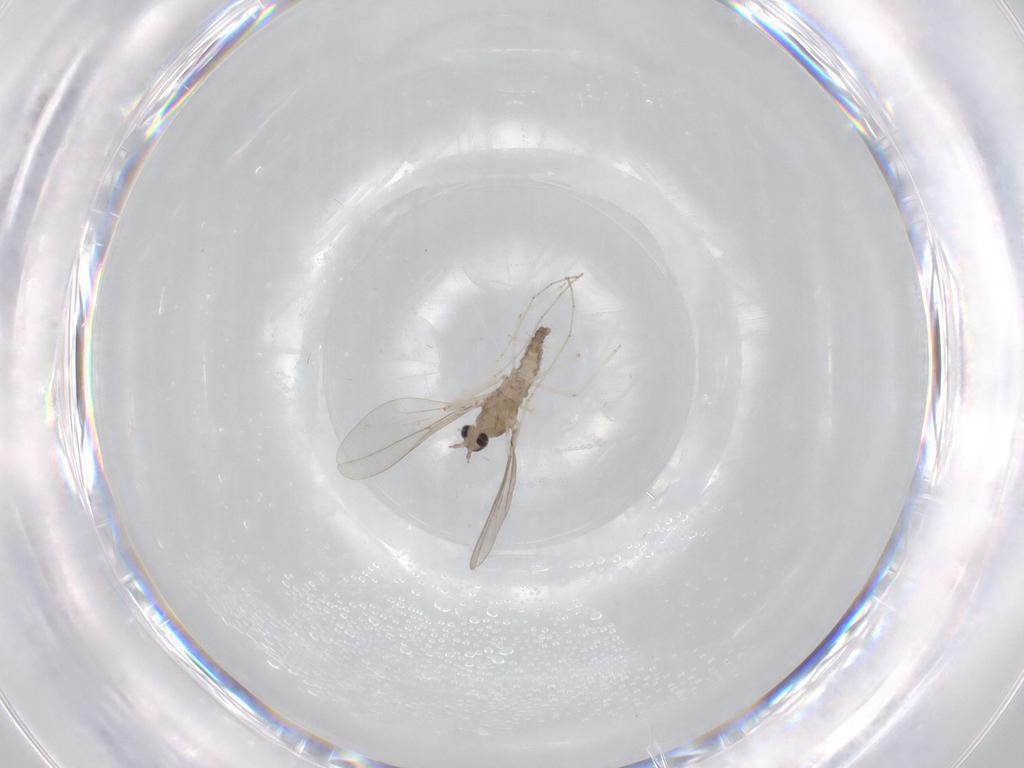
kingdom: Animalia
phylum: Arthropoda
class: Insecta
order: Diptera
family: Cecidomyiidae
